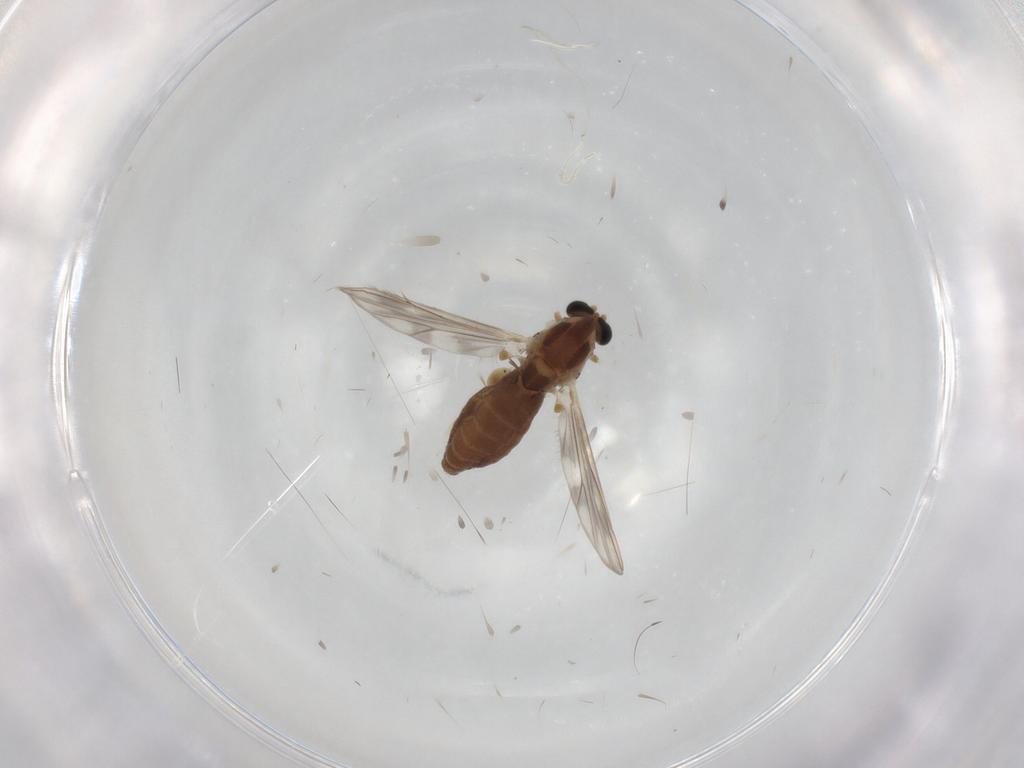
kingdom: Animalia
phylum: Arthropoda
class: Insecta
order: Diptera
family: Chironomidae
